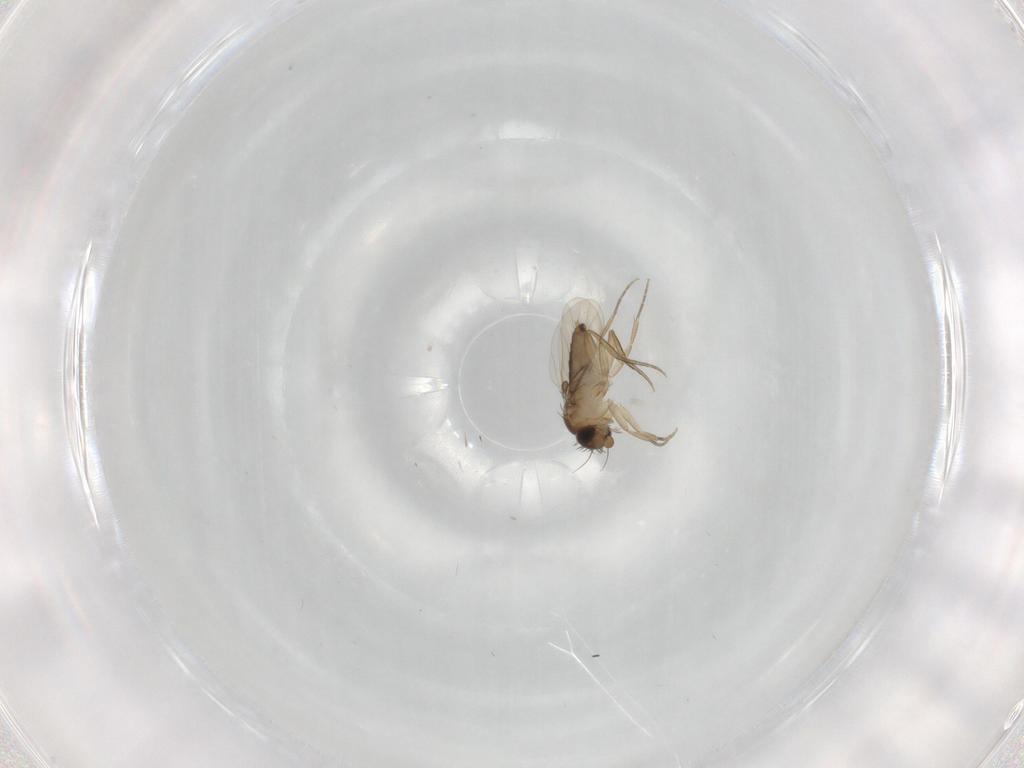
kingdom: Animalia
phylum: Arthropoda
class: Insecta
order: Diptera
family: Phoridae
